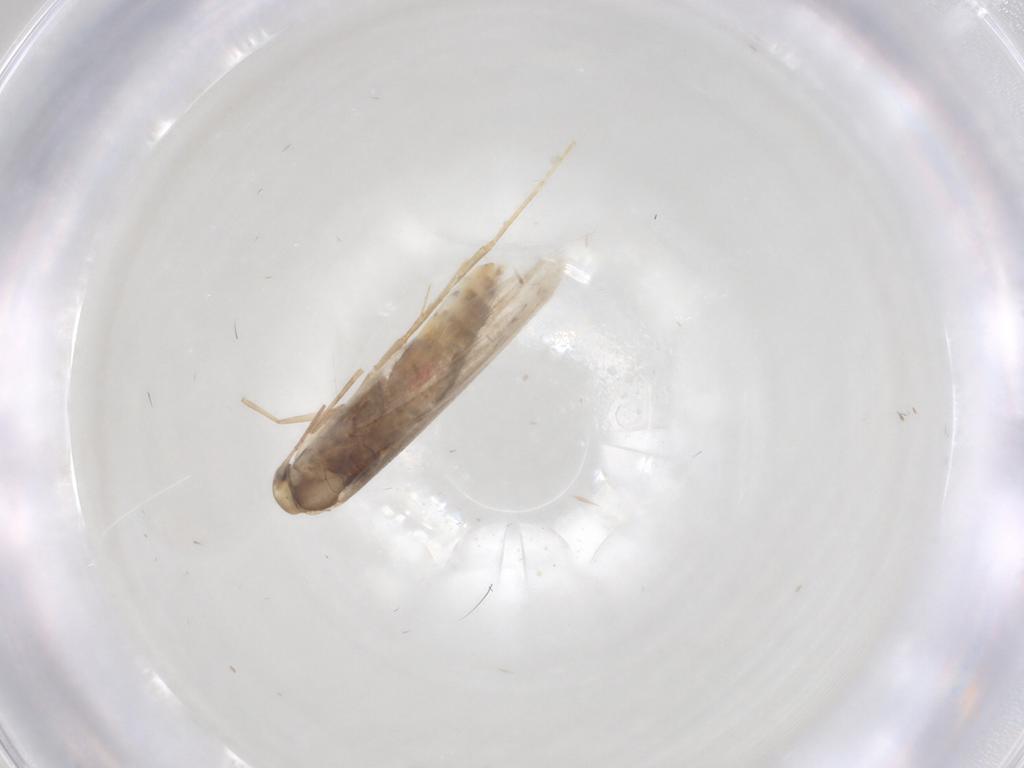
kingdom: Animalia
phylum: Arthropoda
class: Insecta
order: Lepidoptera
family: Gracillariidae
